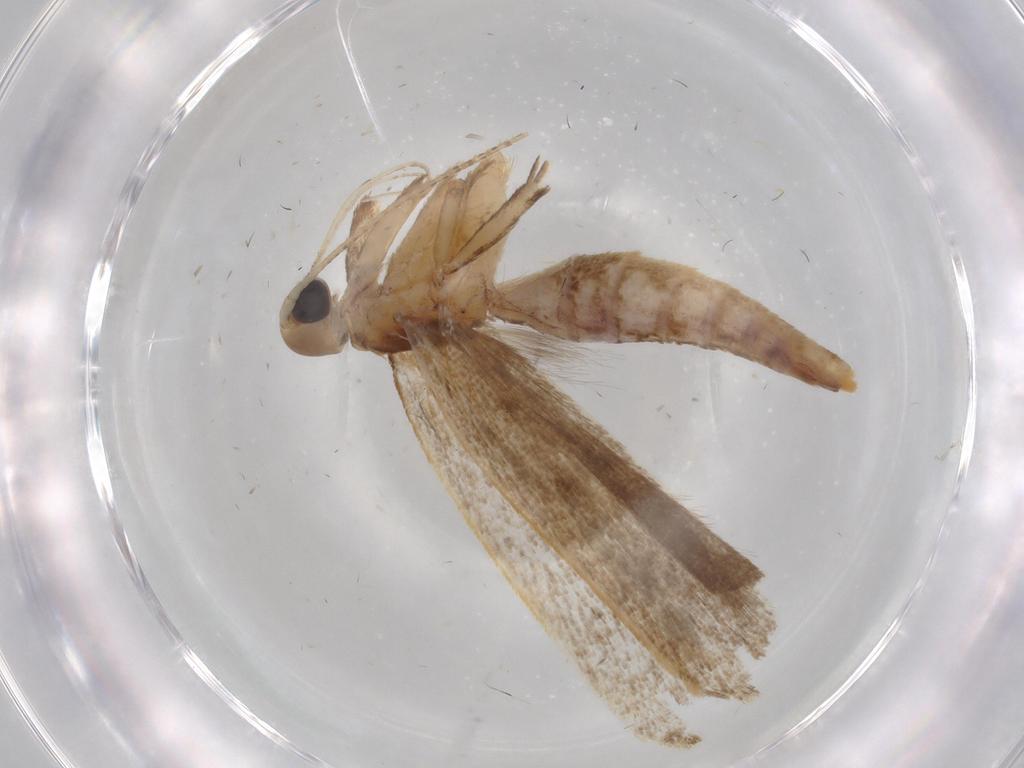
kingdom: Animalia
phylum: Arthropoda
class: Insecta
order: Lepidoptera
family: Gelechiidae
